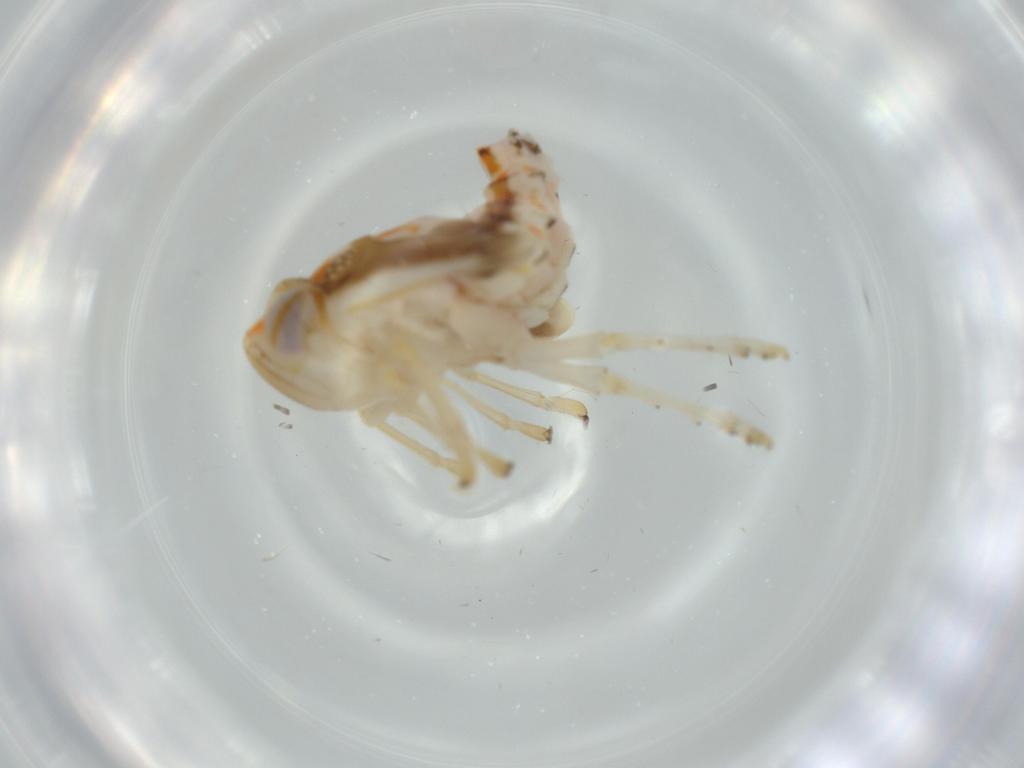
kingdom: Animalia
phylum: Arthropoda
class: Insecta
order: Hemiptera
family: Nogodinidae
